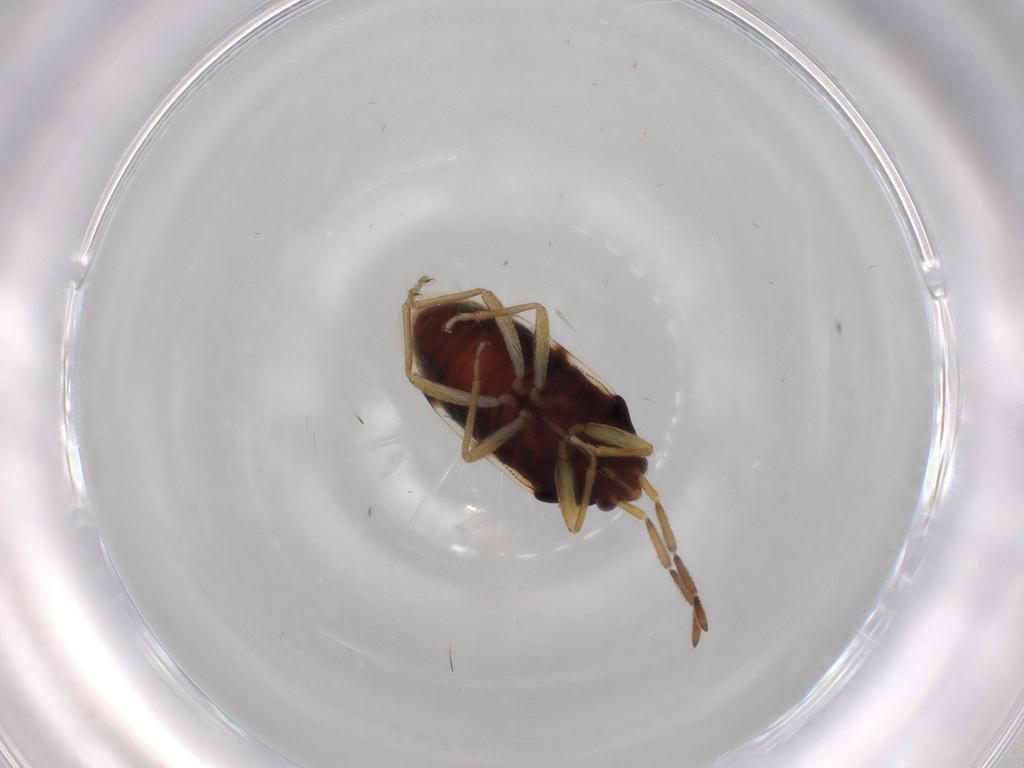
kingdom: Animalia
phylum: Arthropoda
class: Insecta
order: Hemiptera
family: Rhyparochromidae
